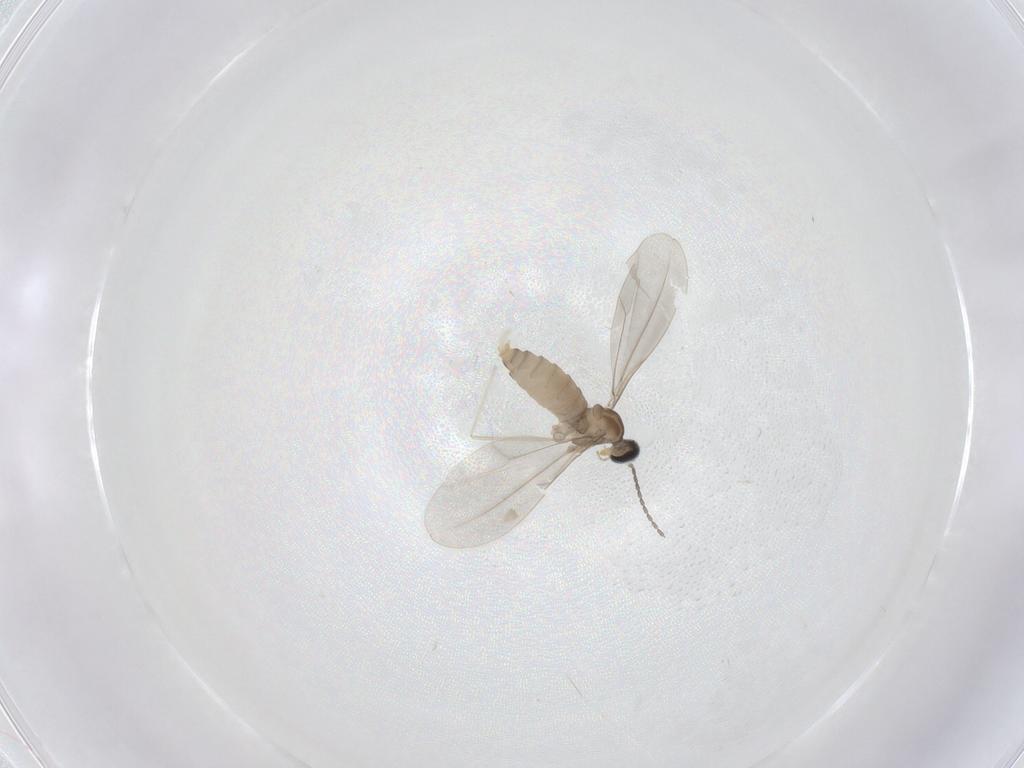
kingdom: Animalia
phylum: Arthropoda
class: Insecta
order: Diptera
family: Cecidomyiidae
